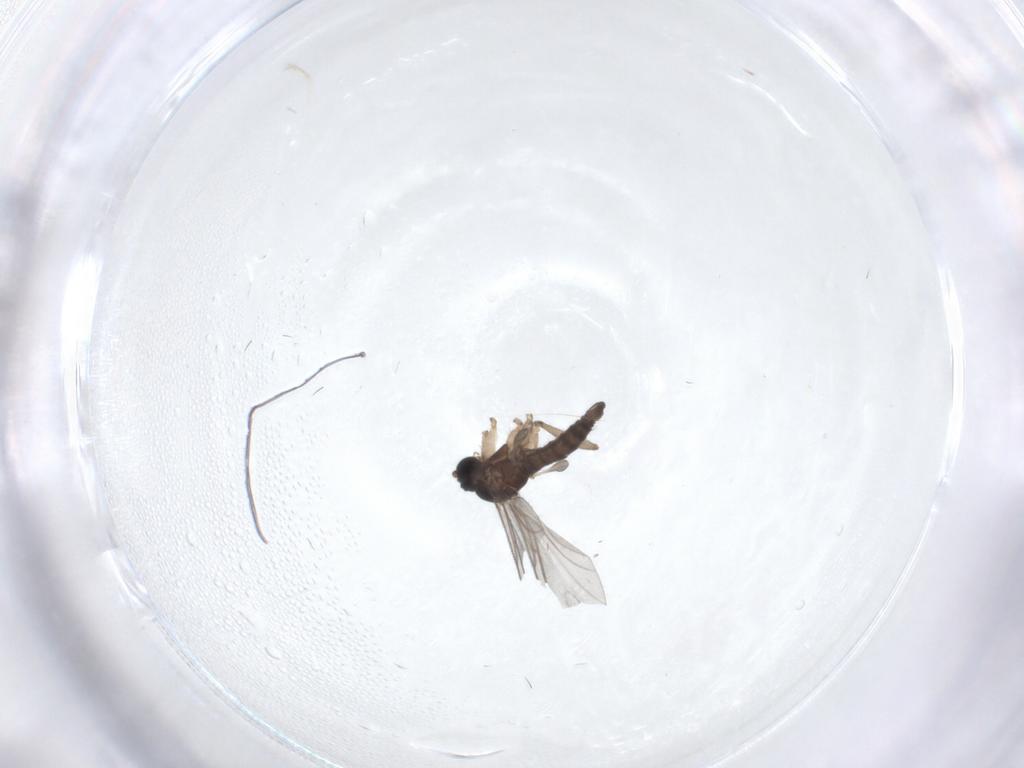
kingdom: Animalia
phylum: Arthropoda
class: Insecta
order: Diptera
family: Sciaridae
